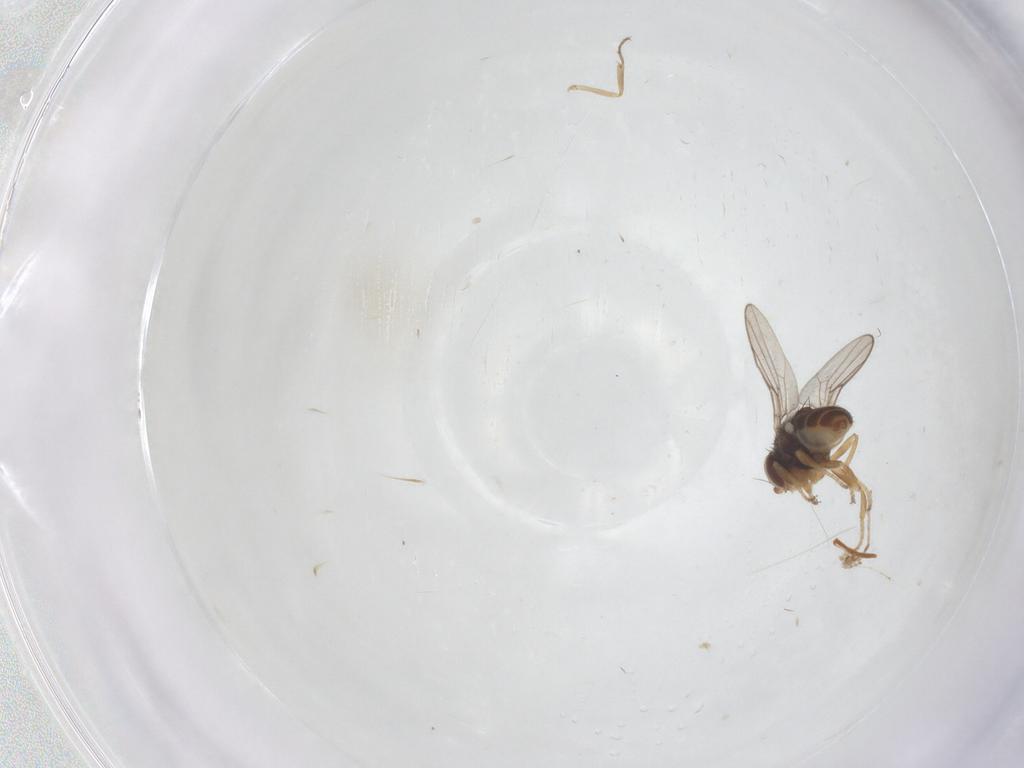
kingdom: Animalia
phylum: Arthropoda
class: Insecta
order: Diptera
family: Chloropidae
